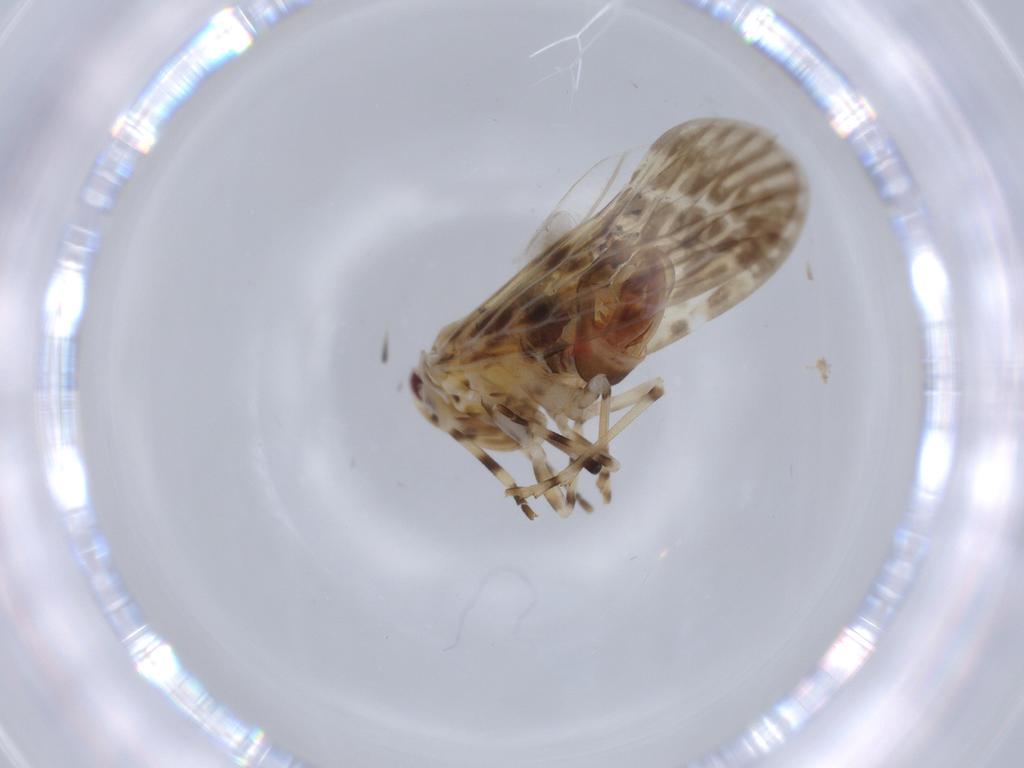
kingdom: Animalia
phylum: Arthropoda
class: Insecta
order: Hemiptera
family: Derbidae
